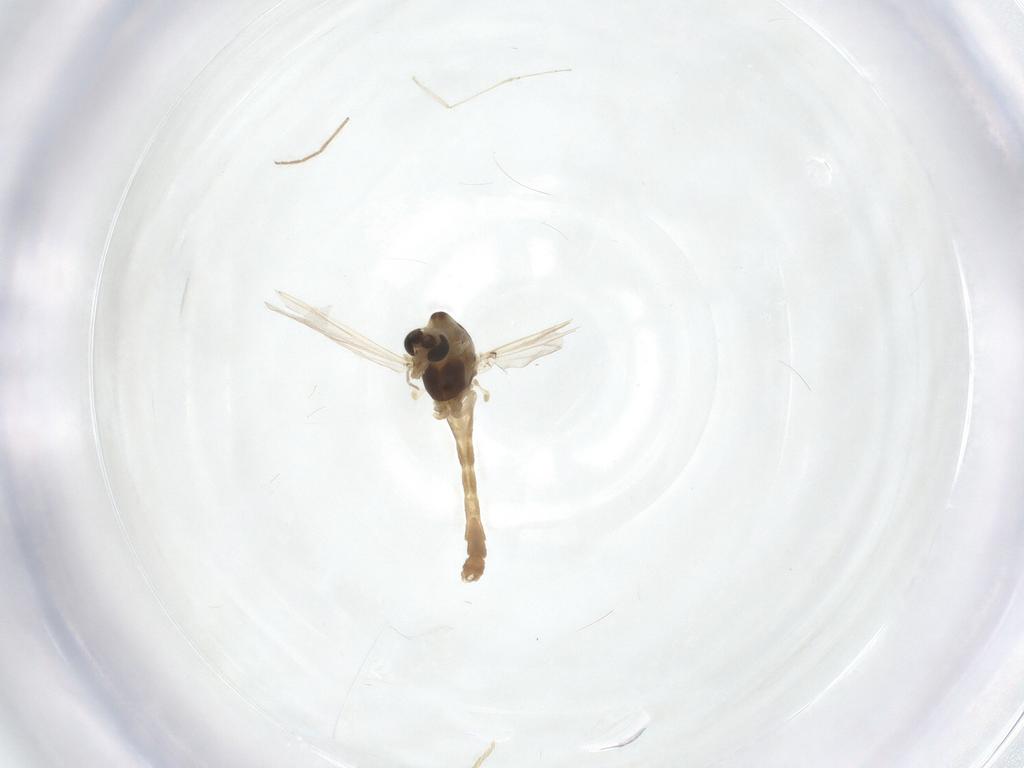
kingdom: Animalia
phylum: Arthropoda
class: Insecta
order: Diptera
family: Chironomidae
